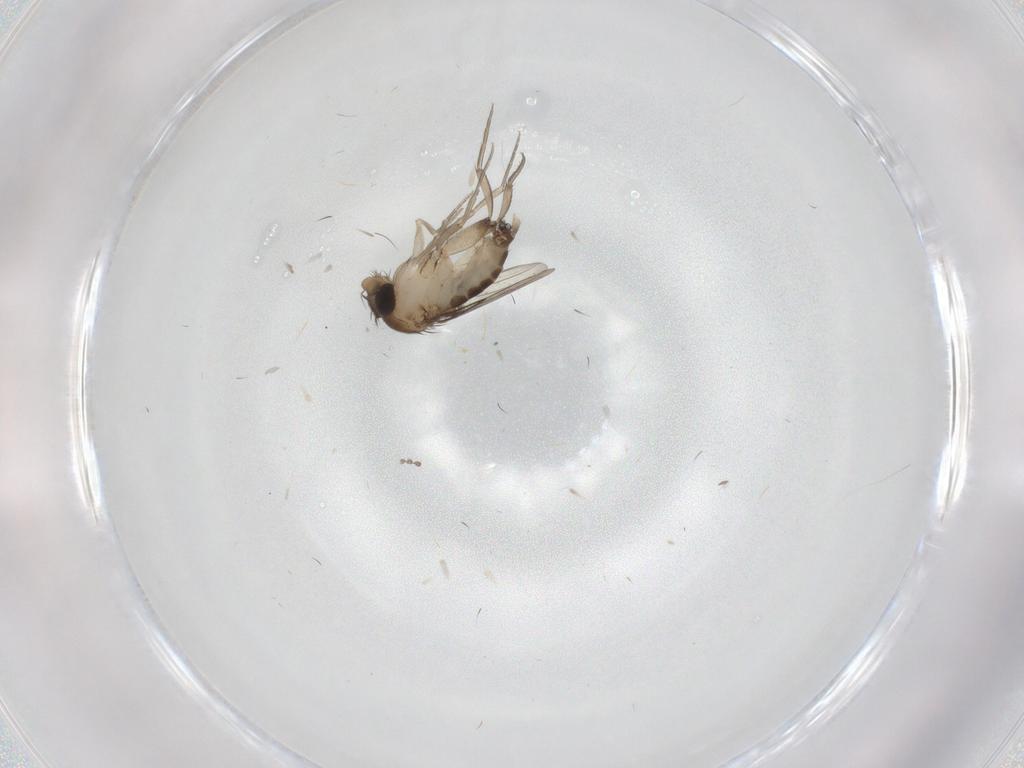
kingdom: Animalia
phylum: Arthropoda
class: Insecta
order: Diptera
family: Phoridae
